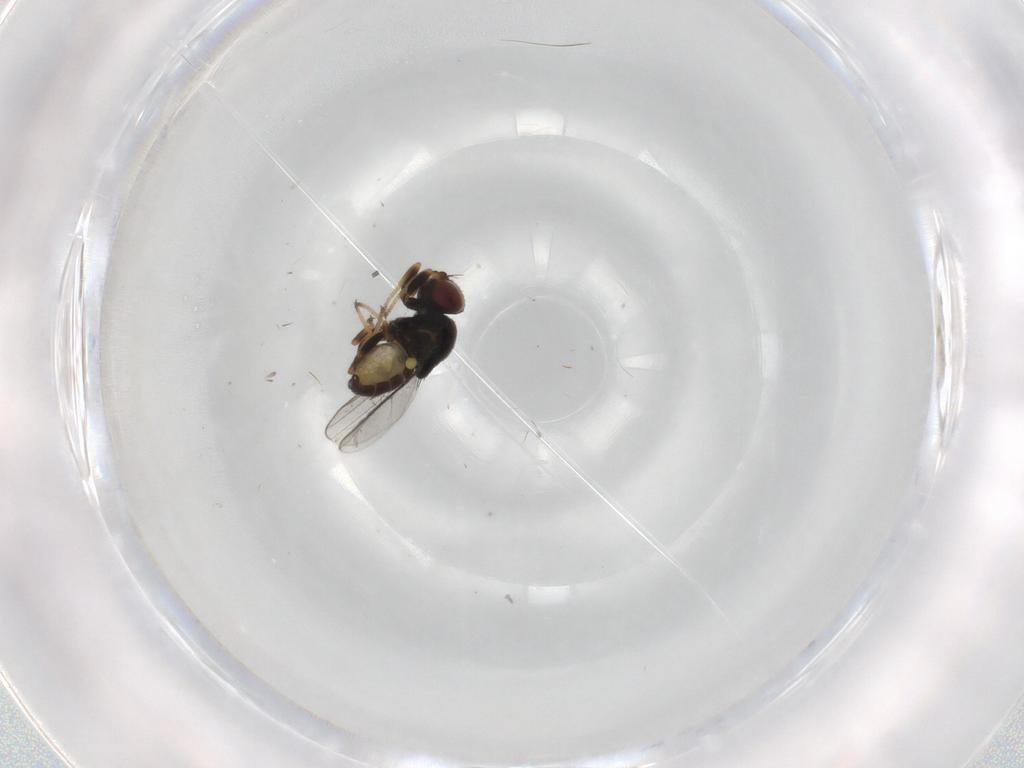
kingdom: Animalia
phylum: Arthropoda
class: Insecta
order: Diptera
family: Chloropidae
